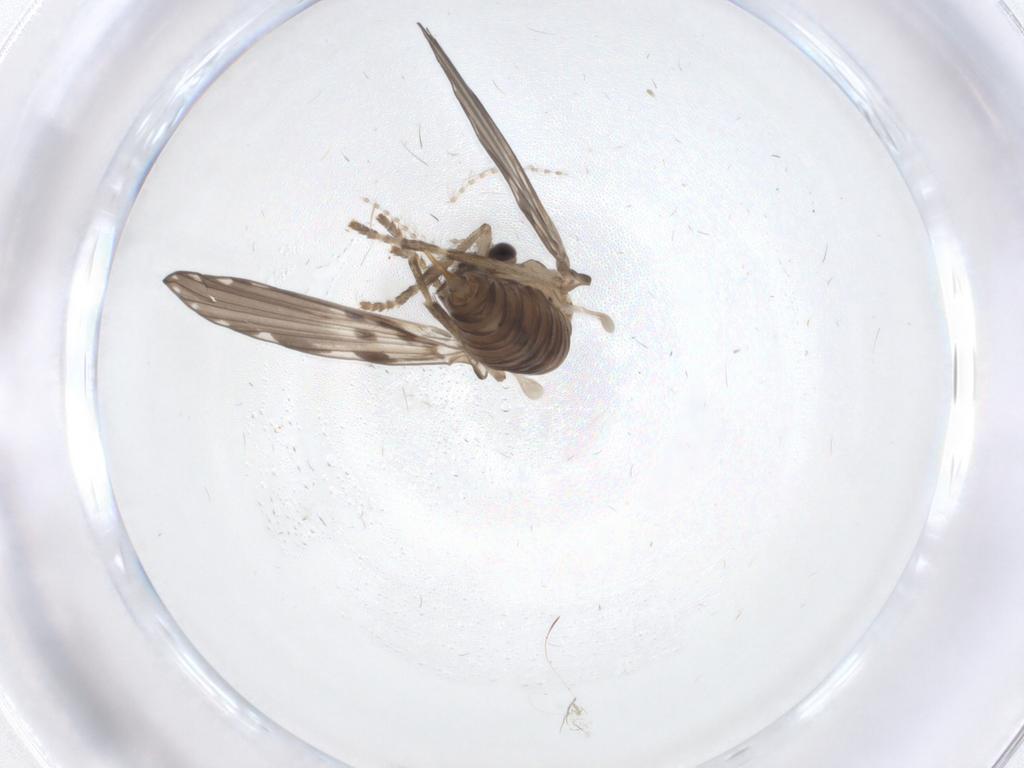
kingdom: Animalia
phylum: Arthropoda
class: Insecta
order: Diptera
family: Psychodidae
